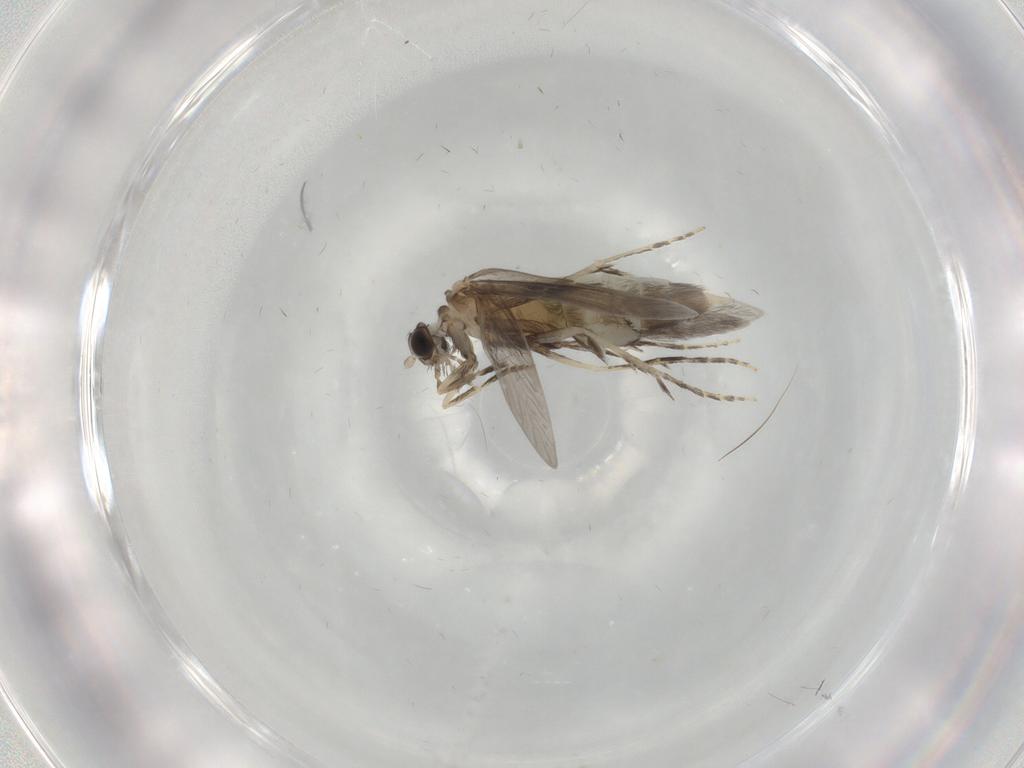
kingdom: Animalia
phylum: Arthropoda
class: Insecta
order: Trichoptera
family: Hydroptilidae
